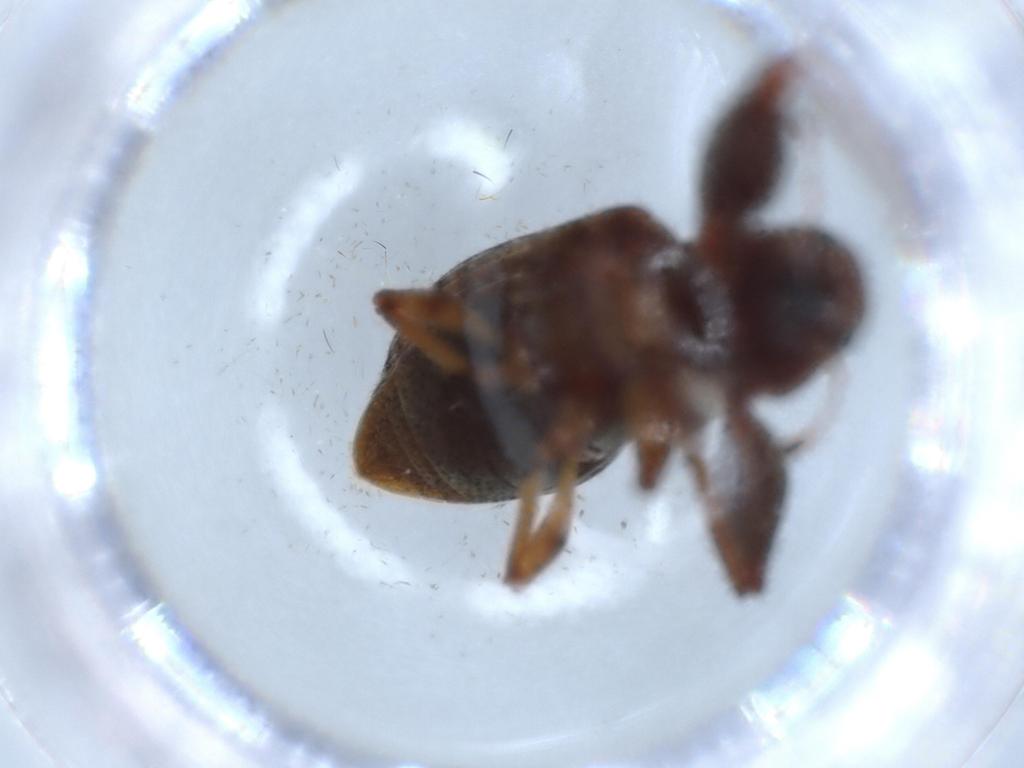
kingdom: Animalia
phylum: Arthropoda
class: Insecta
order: Coleoptera
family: Curculionidae
